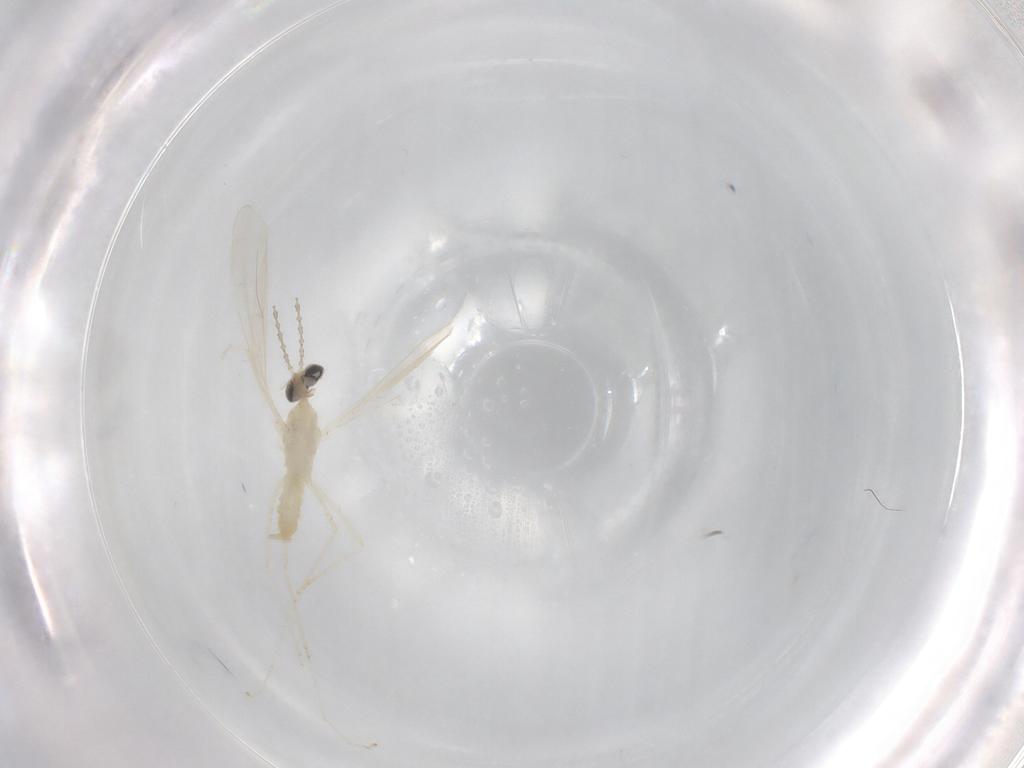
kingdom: Animalia
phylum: Arthropoda
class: Insecta
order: Diptera
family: Cecidomyiidae
